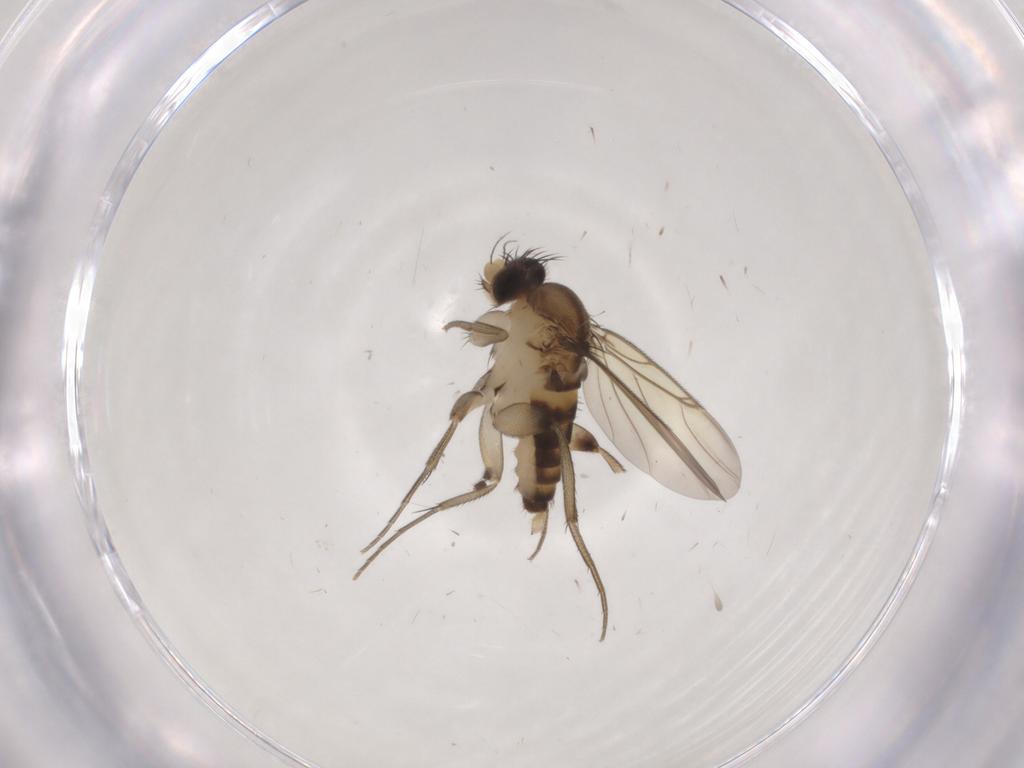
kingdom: Animalia
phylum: Arthropoda
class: Insecta
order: Diptera
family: Phoridae
